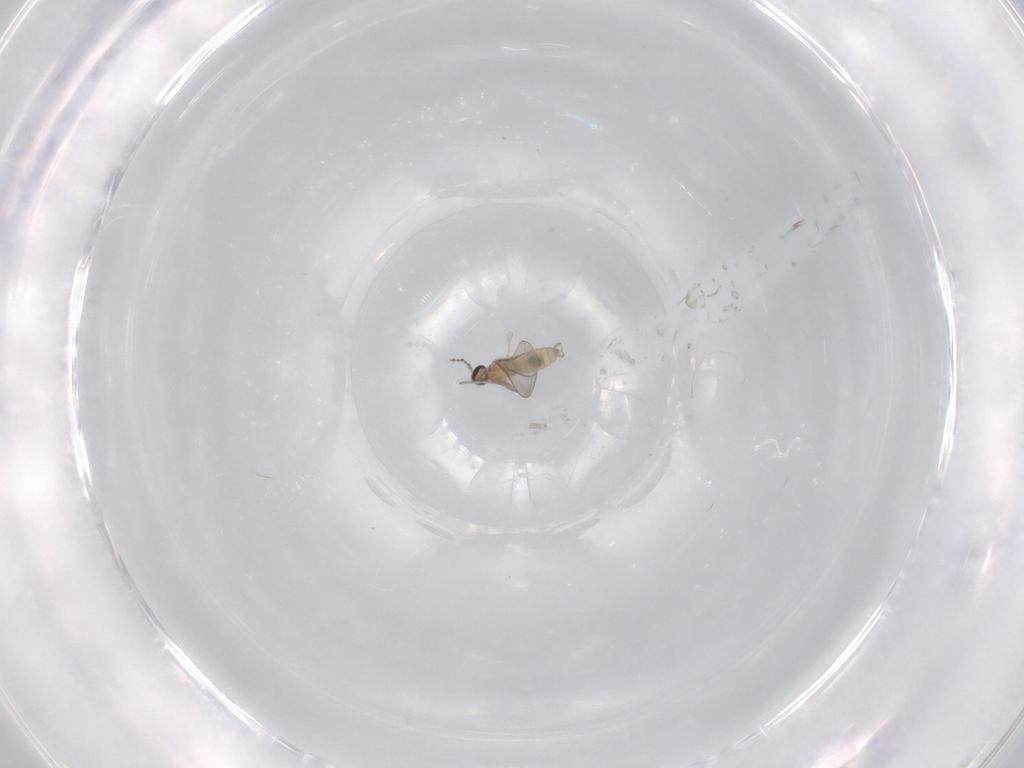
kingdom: Animalia
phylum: Arthropoda
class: Insecta
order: Diptera
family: Cecidomyiidae
